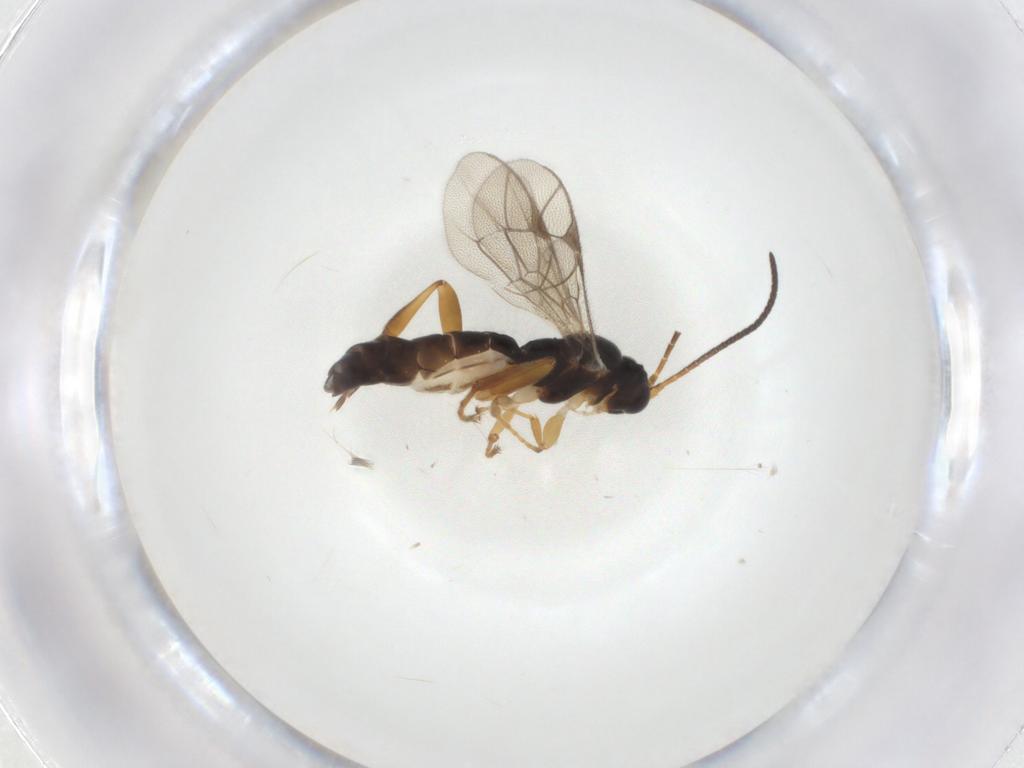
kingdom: Animalia
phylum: Arthropoda
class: Insecta
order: Hymenoptera
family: Ichneumonidae
